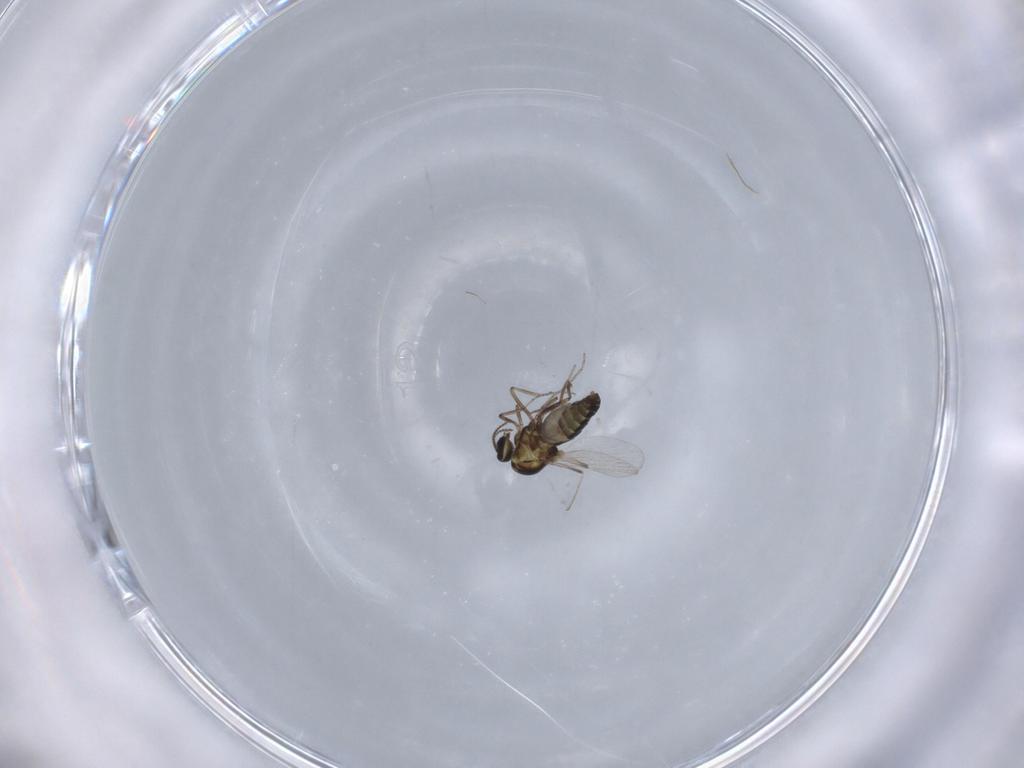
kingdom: Animalia
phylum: Arthropoda
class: Insecta
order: Diptera
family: Ceratopogonidae
